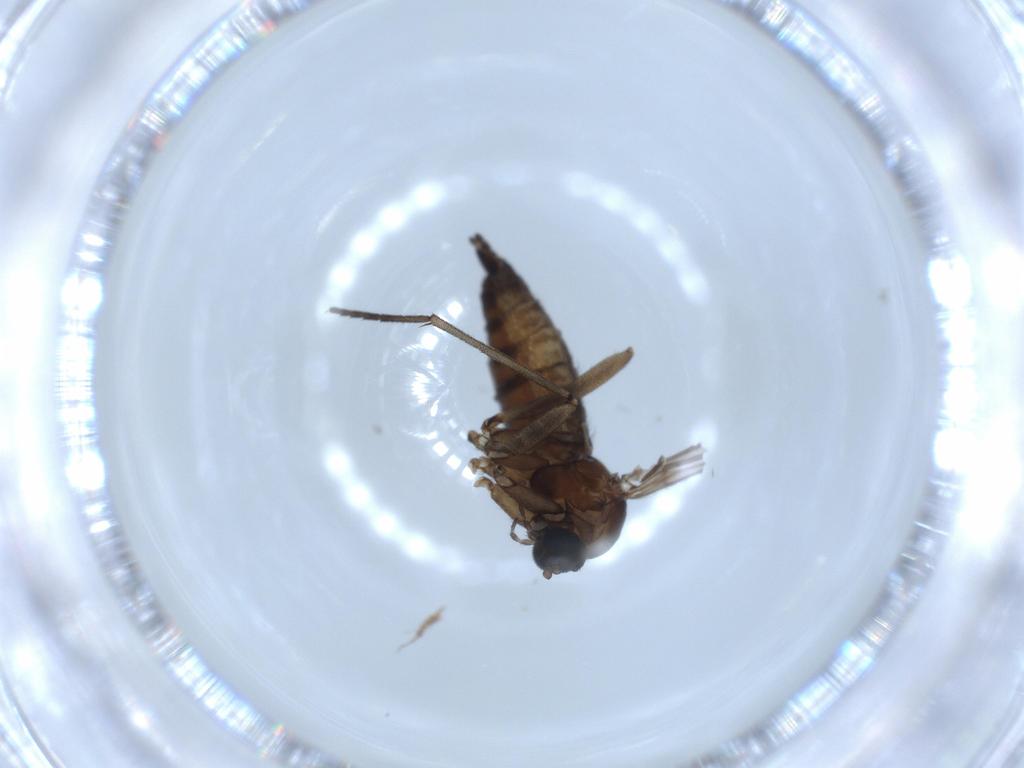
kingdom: Animalia
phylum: Arthropoda
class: Insecta
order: Diptera
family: Sciaridae
